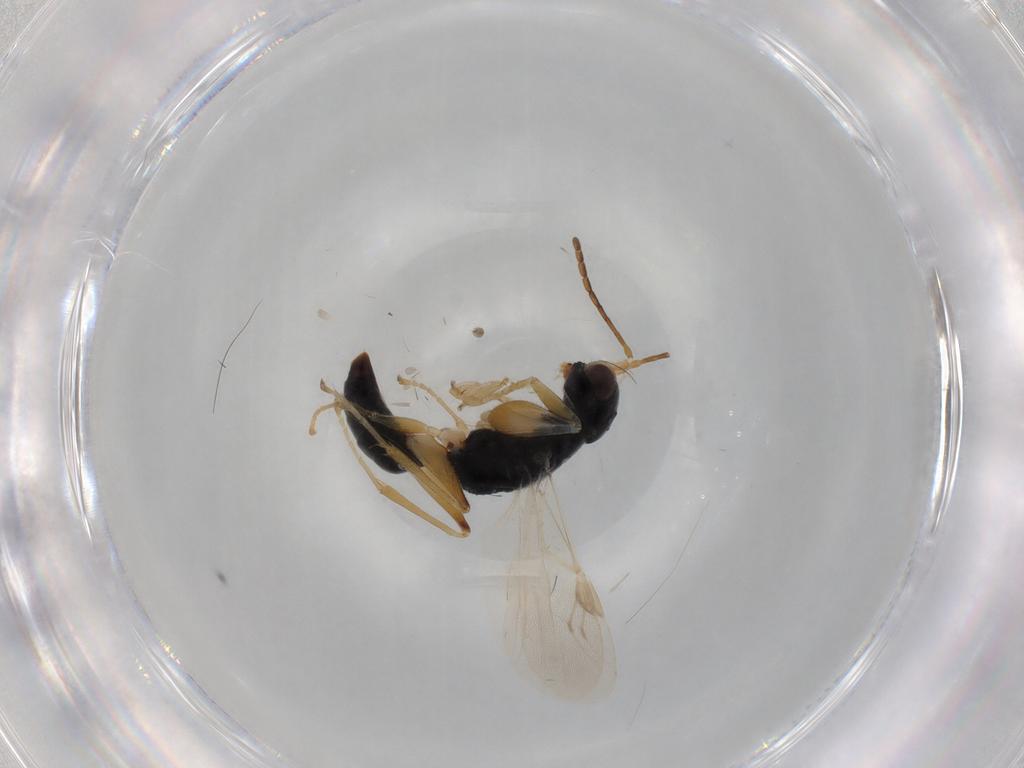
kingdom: Animalia
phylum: Arthropoda
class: Insecta
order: Hymenoptera
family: Dryinidae
